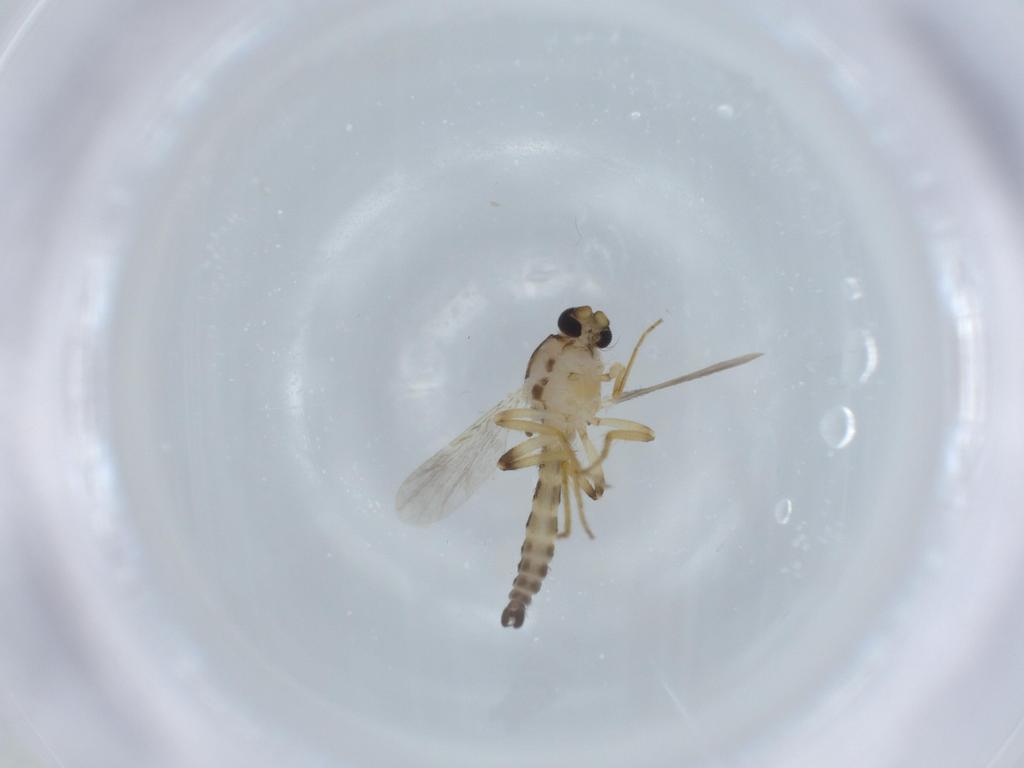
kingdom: Animalia
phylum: Arthropoda
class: Insecta
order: Diptera
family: Ceratopogonidae
